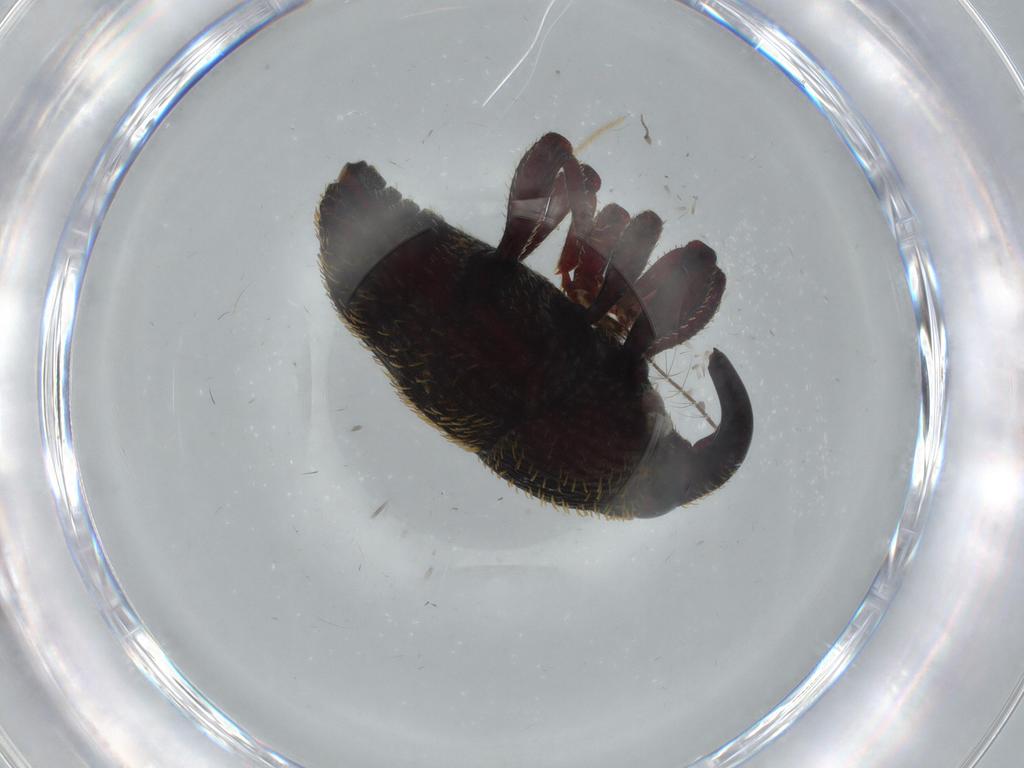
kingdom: Animalia
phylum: Arthropoda
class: Insecta
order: Coleoptera
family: Curculionidae
